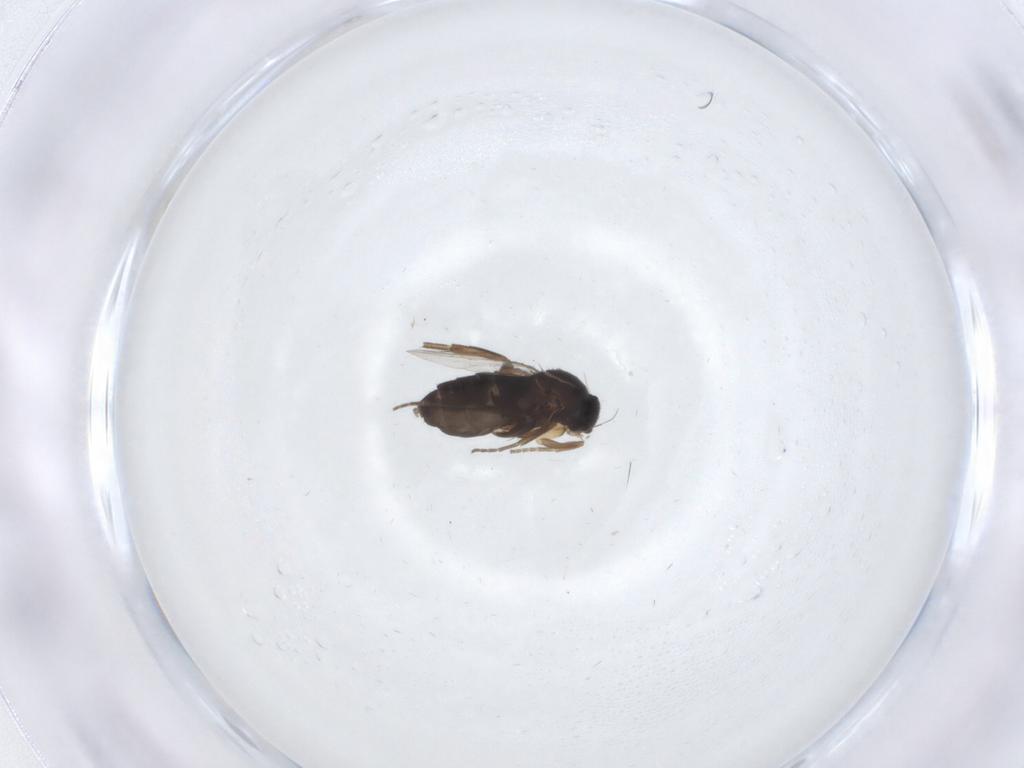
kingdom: Animalia
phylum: Arthropoda
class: Insecta
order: Diptera
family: Phoridae
